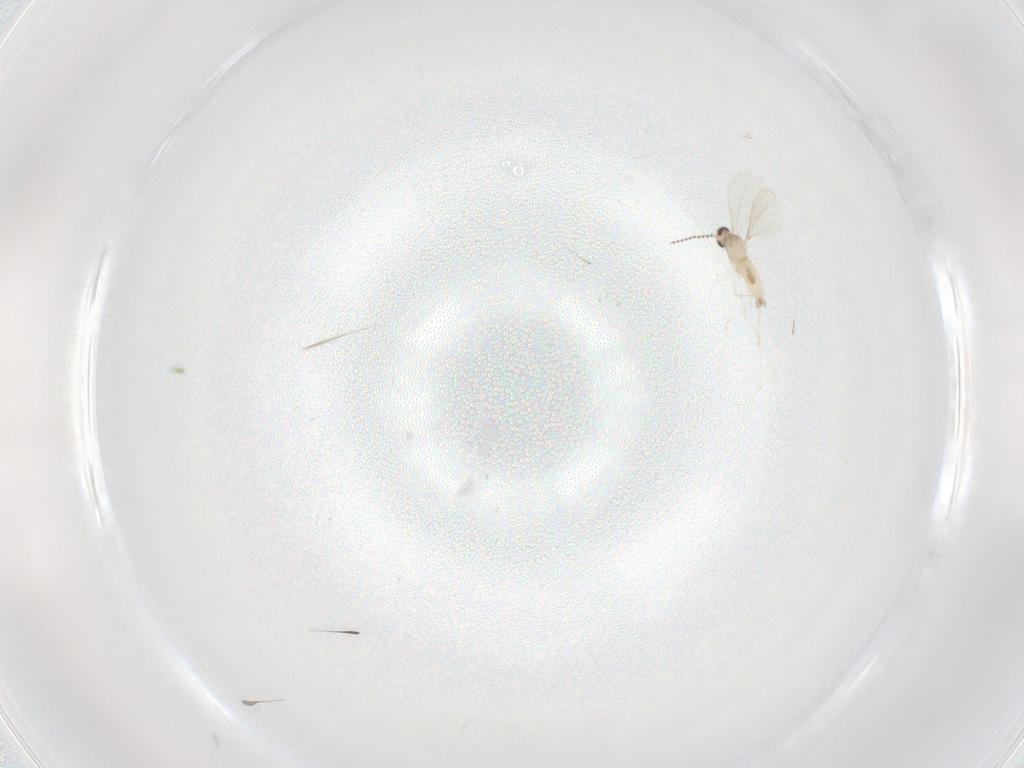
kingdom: Animalia
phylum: Arthropoda
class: Insecta
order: Diptera
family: Cecidomyiidae
